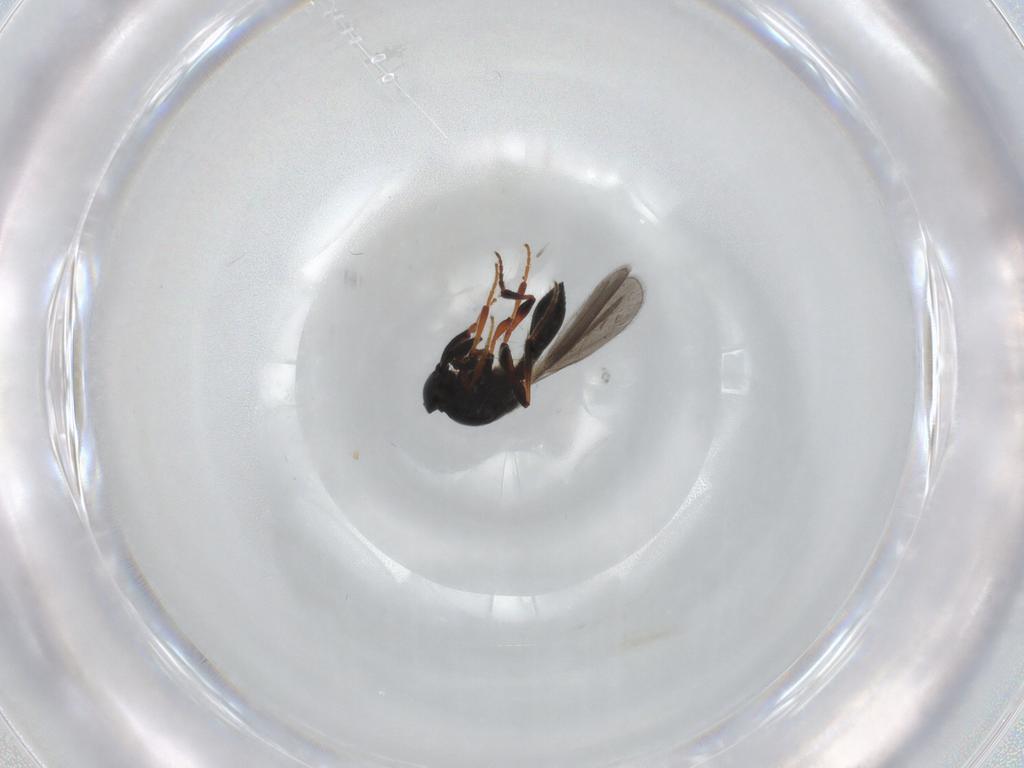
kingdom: Animalia
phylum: Arthropoda
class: Insecta
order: Hymenoptera
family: Platygastridae
